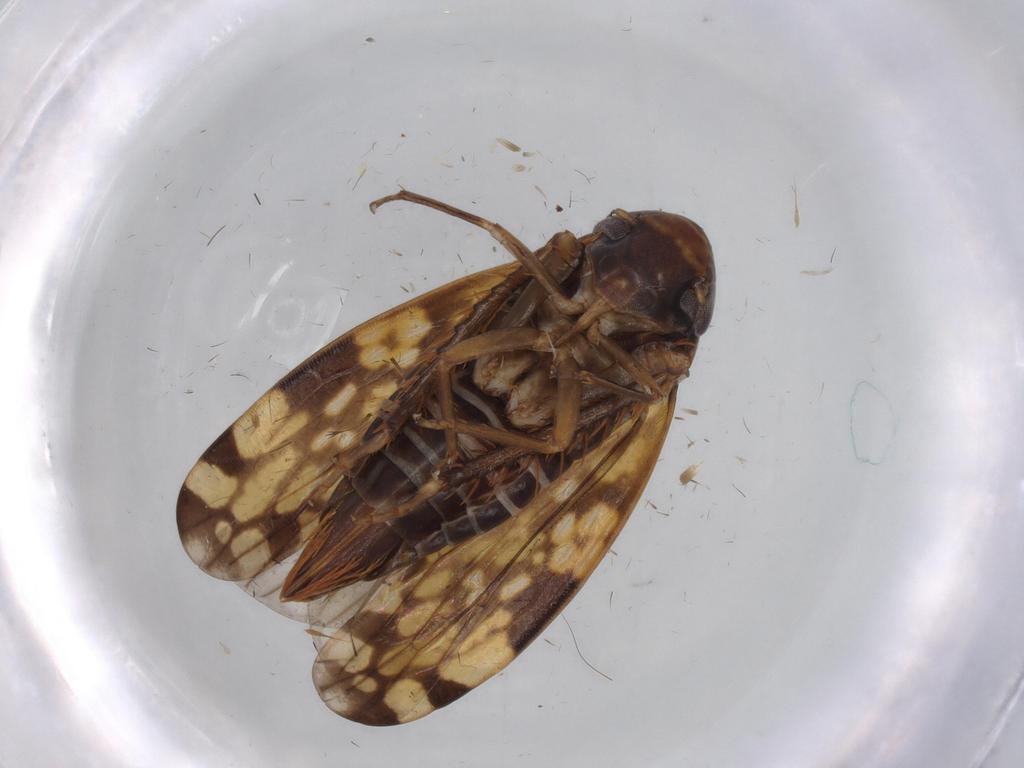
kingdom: Animalia
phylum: Arthropoda
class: Insecta
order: Hemiptera
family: Cicadellidae
